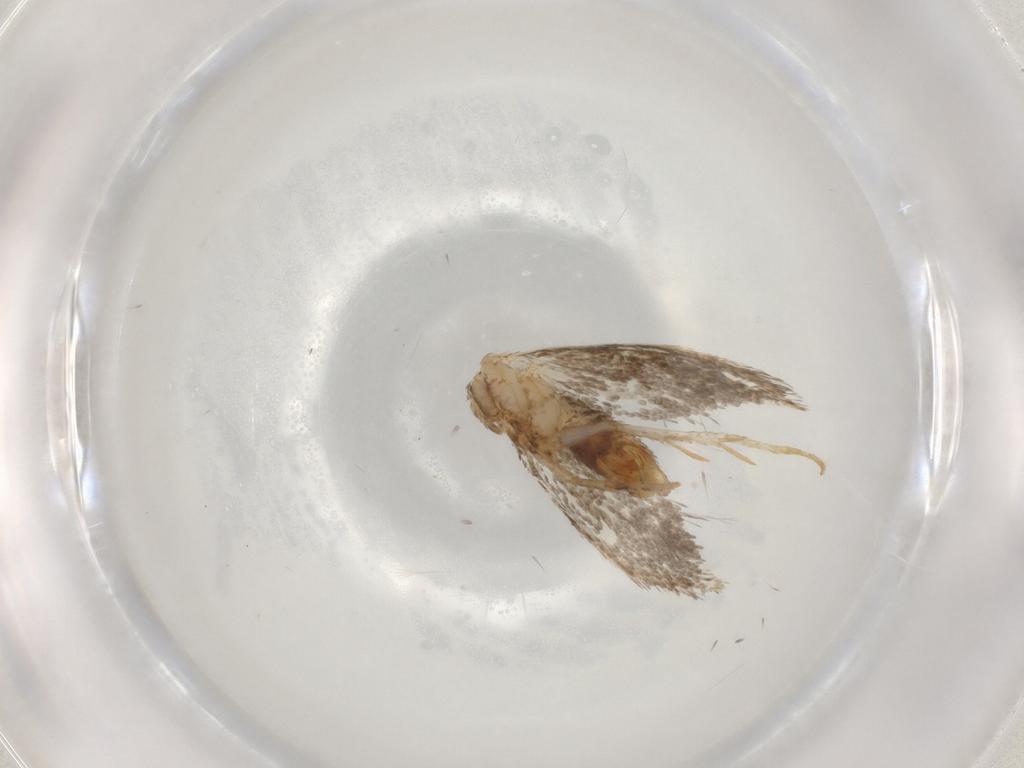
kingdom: Animalia
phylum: Arthropoda
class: Insecta
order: Lepidoptera
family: Tineidae
